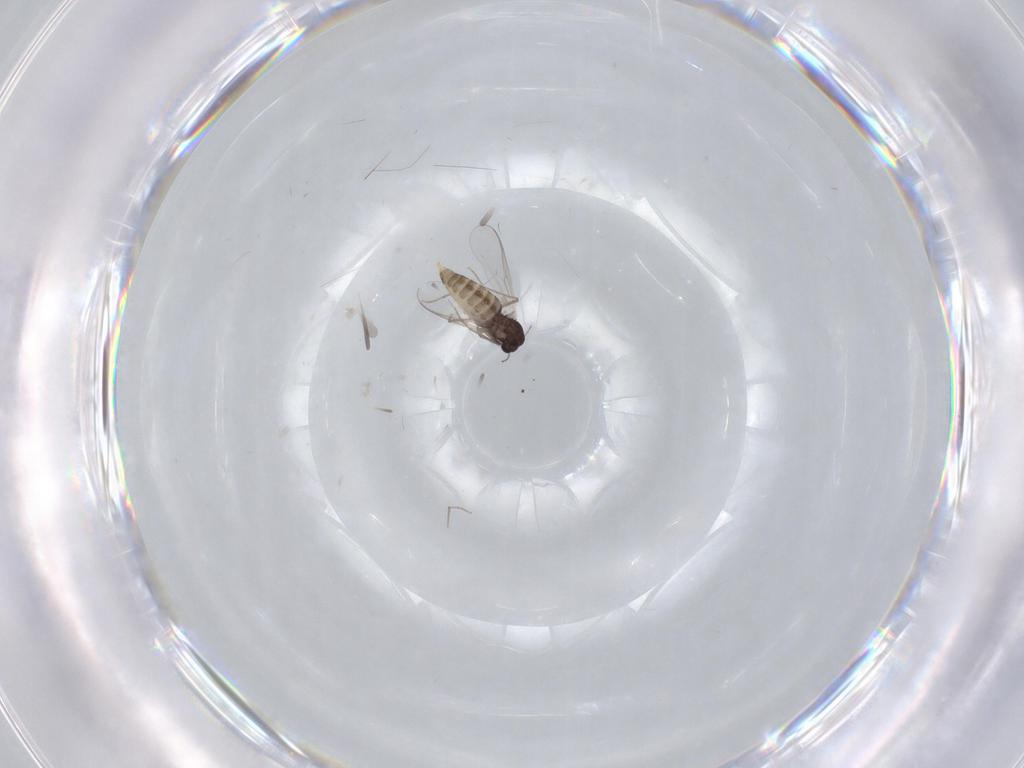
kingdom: Animalia
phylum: Arthropoda
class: Insecta
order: Diptera
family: Chironomidae
